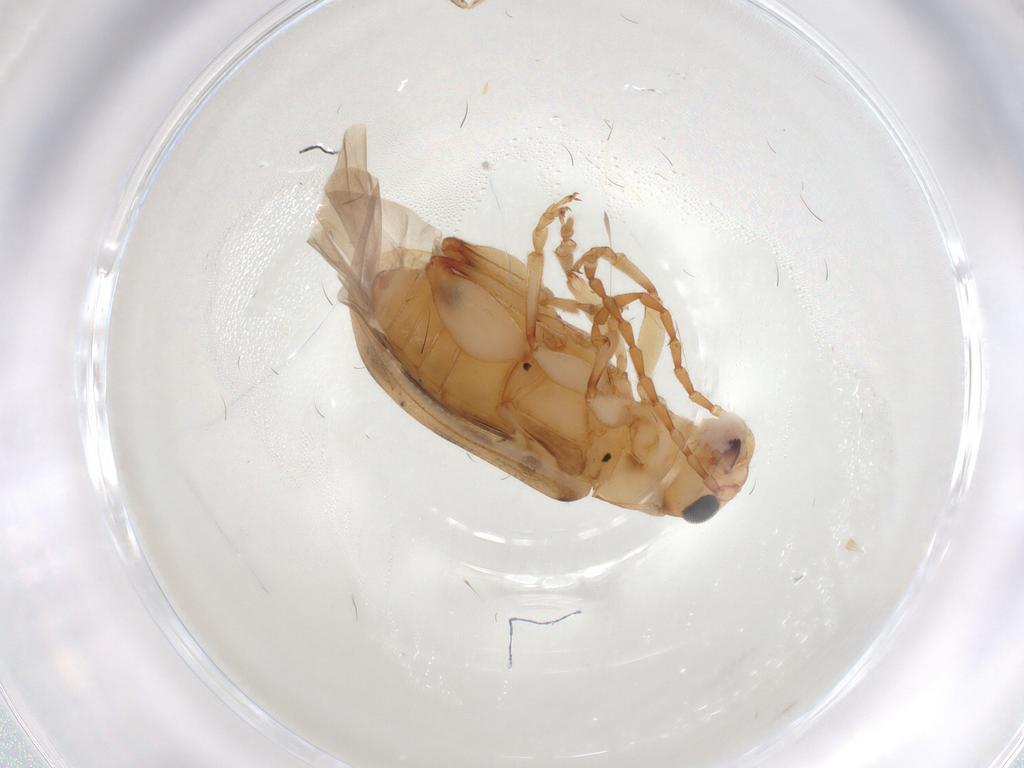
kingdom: Animalia
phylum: Arthropoda
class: Insecta
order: Coleoptera
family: Chrysomelidae
